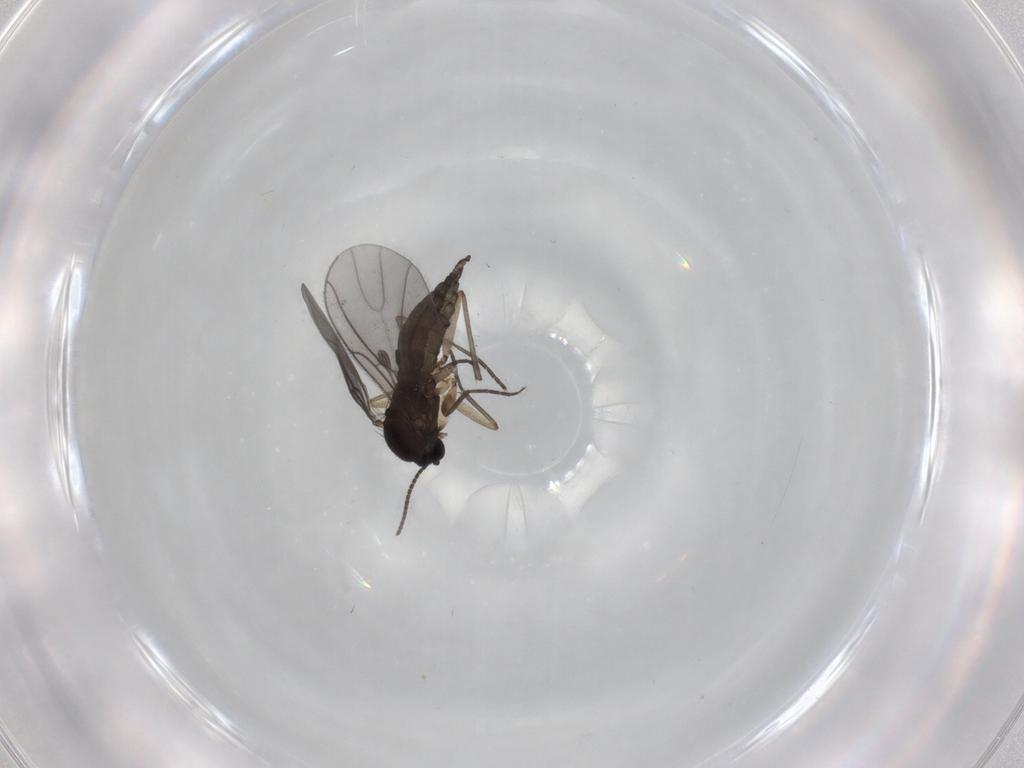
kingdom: Animalia
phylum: Arthropoda
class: Insecta
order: Diptera
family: Sciaridae
